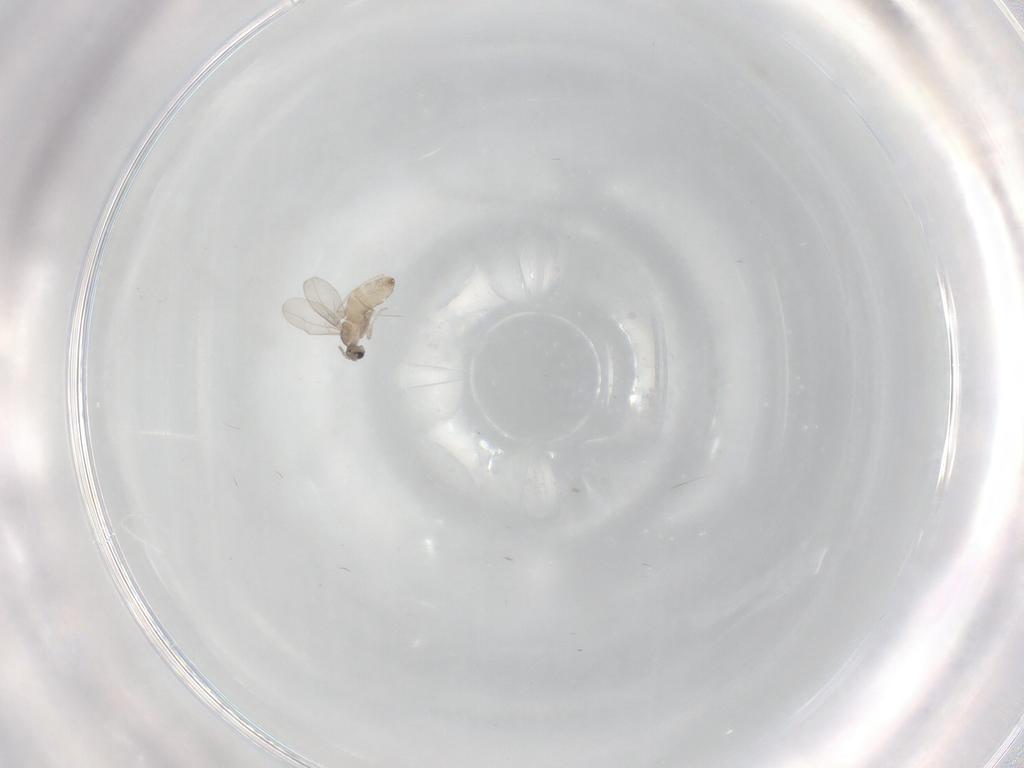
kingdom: Animalia
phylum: Arthropoda
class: Insecta
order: Diptera
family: Cecidomyiidae
